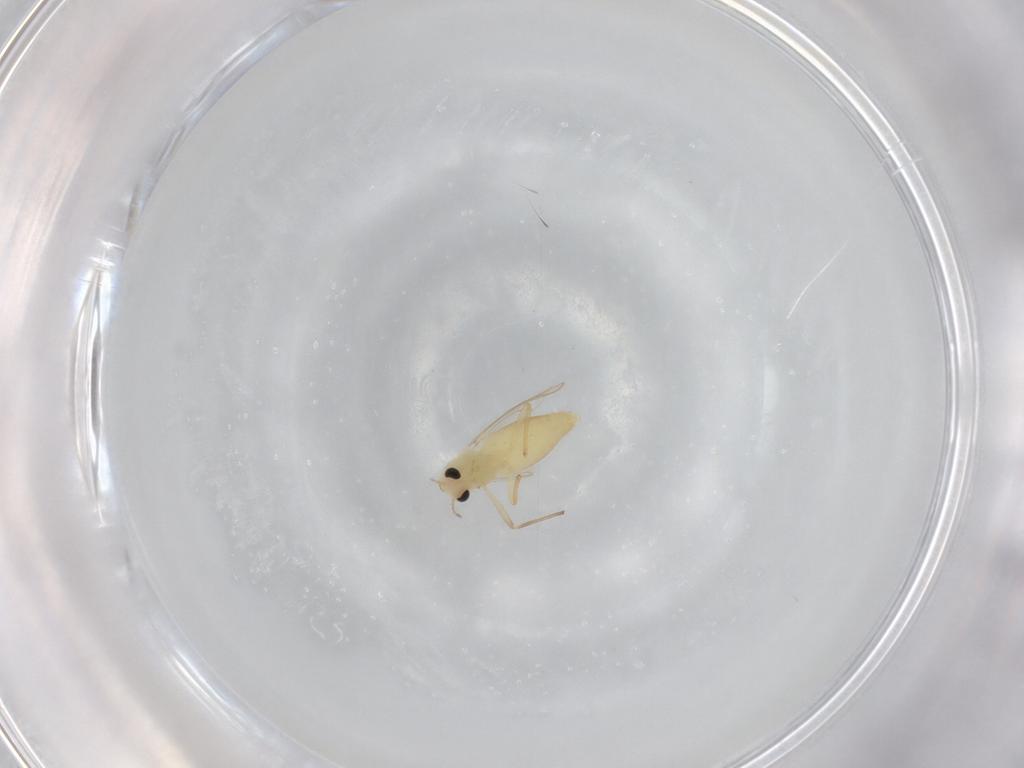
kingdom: Animalia
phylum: Arthropoda
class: Insecta
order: Diptera
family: Chironomidae
